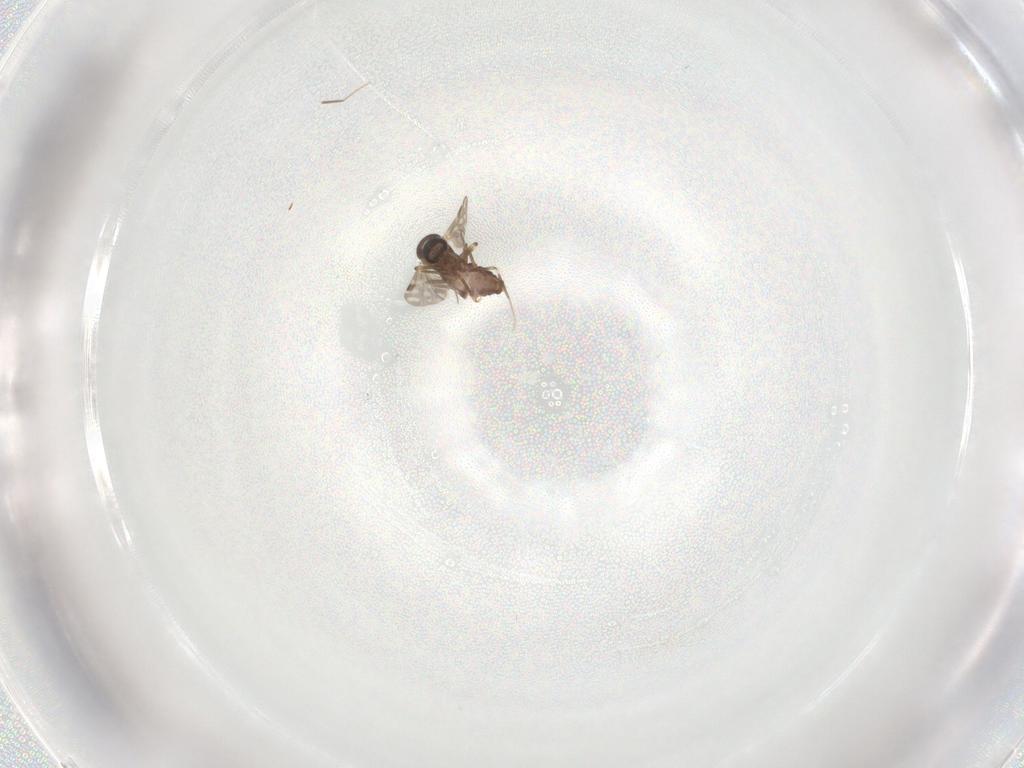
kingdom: Animalia
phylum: Arthropoda
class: Insecta
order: Diptera
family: Ceratopogonidae
